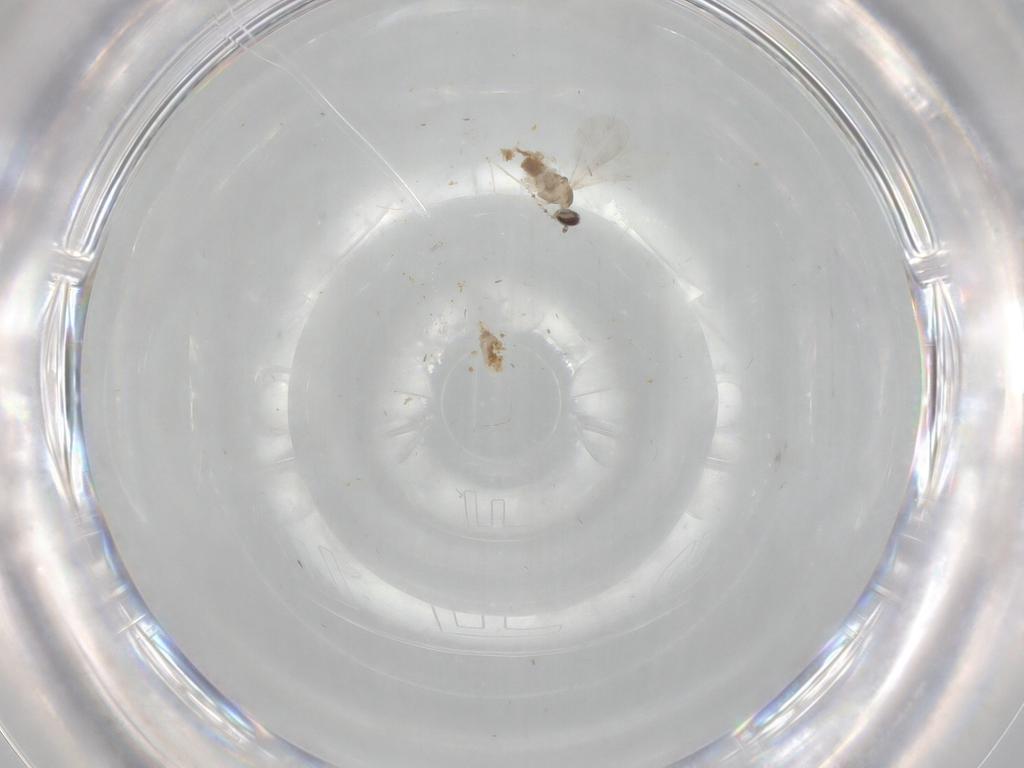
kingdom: Animalia
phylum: Arthropoda
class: Insecta
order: Diptera
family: Cecidomyiidae
